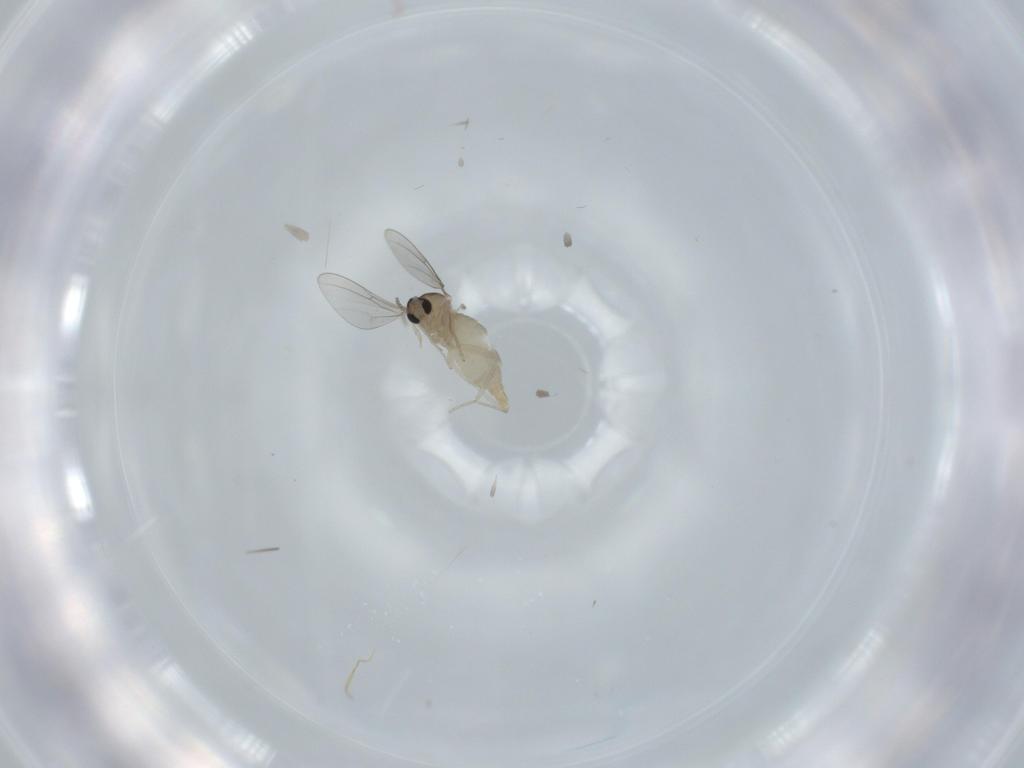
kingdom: Animalia
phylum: Arthropoda
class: Insecta
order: Diptera
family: Cecidomyiidae
